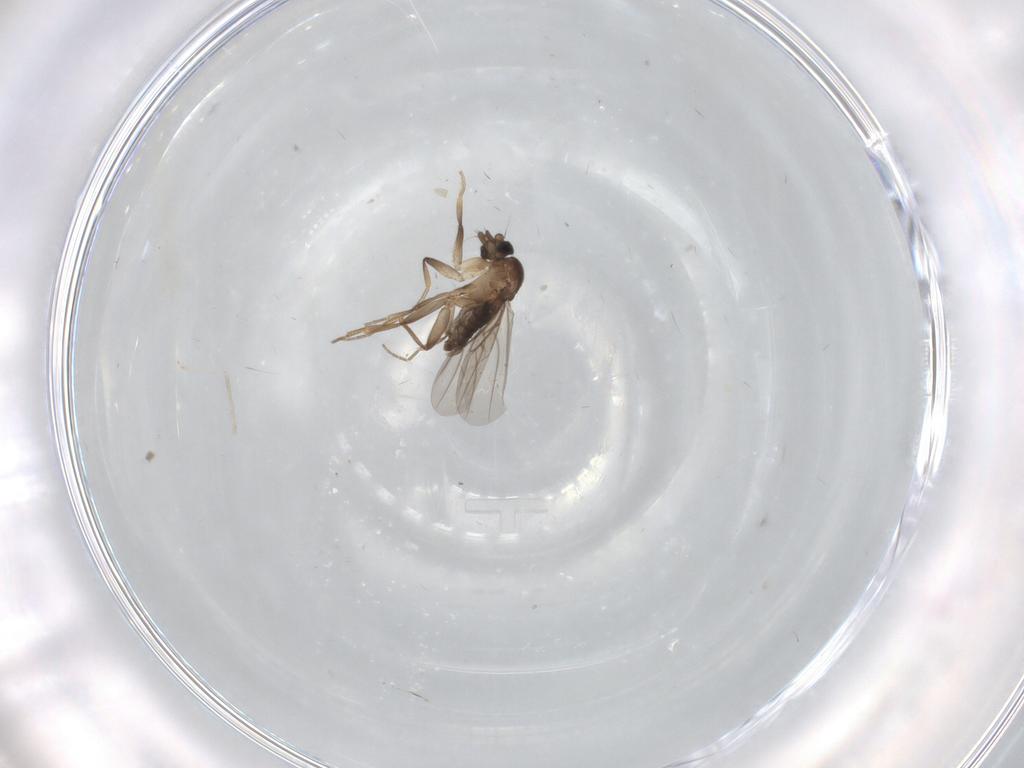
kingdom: Animalia
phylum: Arthropoda
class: Insecta
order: Diptera
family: Cecidomyiidae
